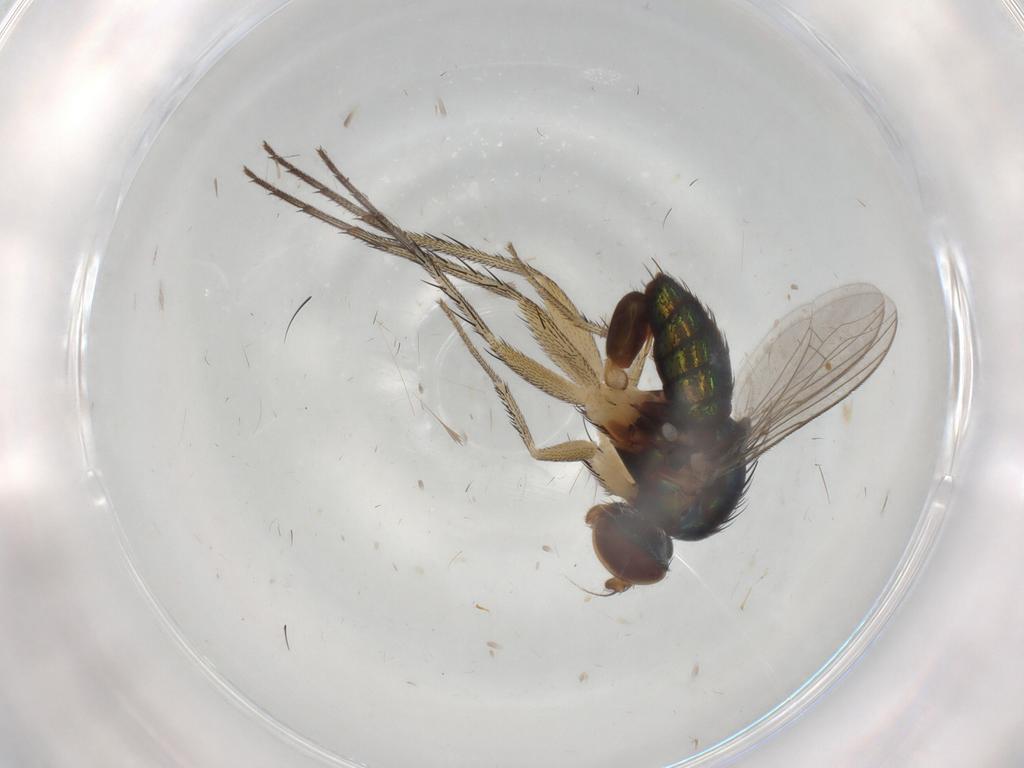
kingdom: Animalia
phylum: Arthropoda
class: Insecta
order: Diptera
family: Dolichopodidae
